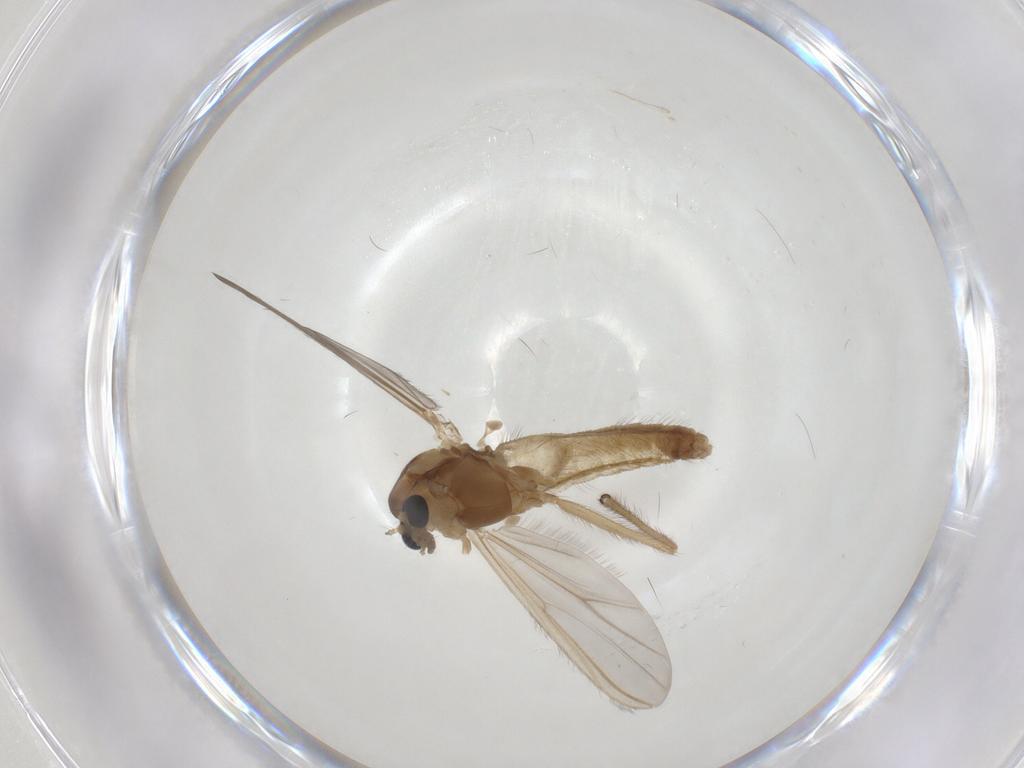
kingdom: Animalia
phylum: Arthropoda
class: Insecta
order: Diptera
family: Chironomidae
